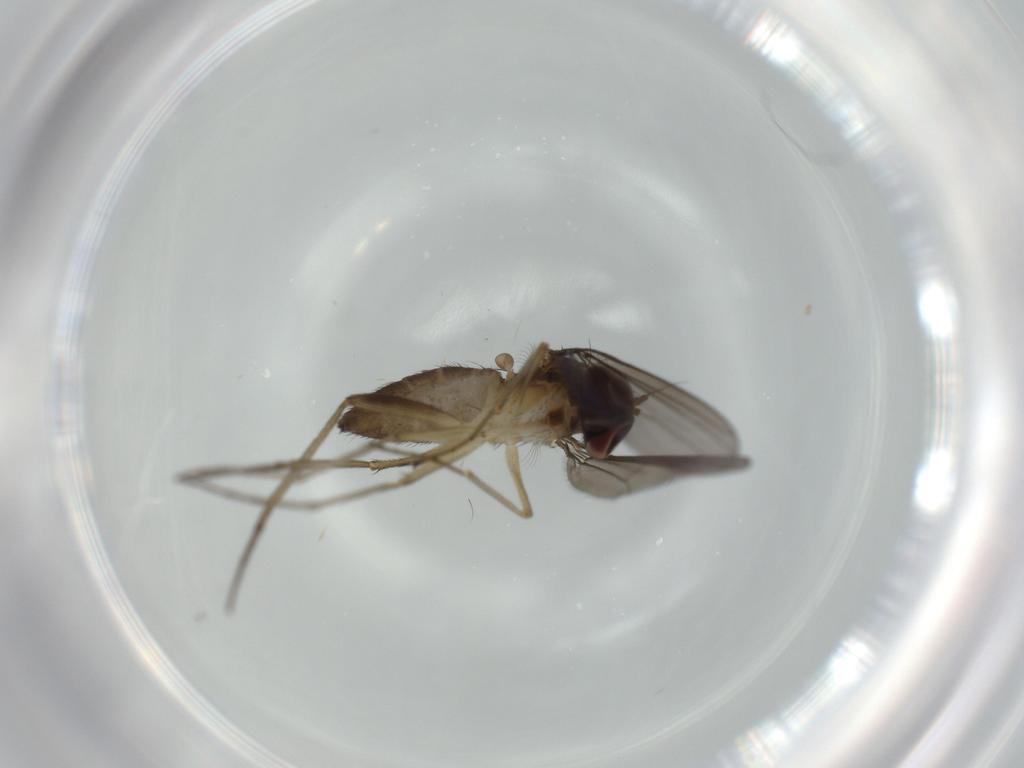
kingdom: Animalia
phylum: Arthropoda
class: Insecta
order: Diptera
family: Dolichopodidae
